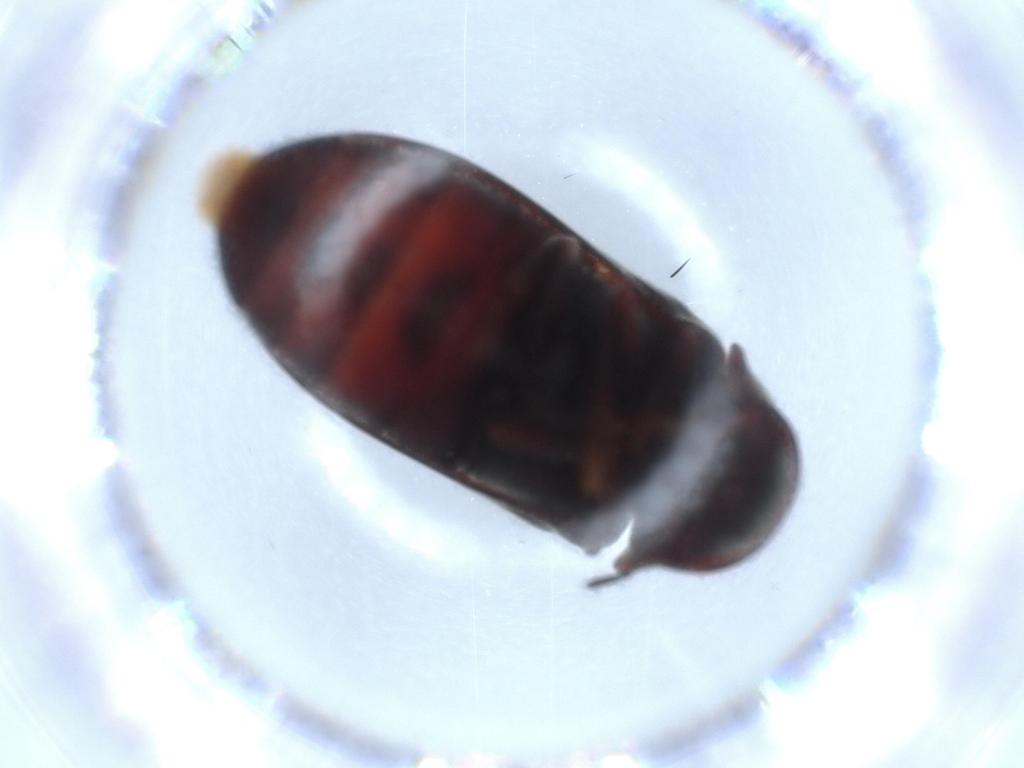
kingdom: Animalia
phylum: Arthropoda
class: Insecta
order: Coleoptera
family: Ptinidae
